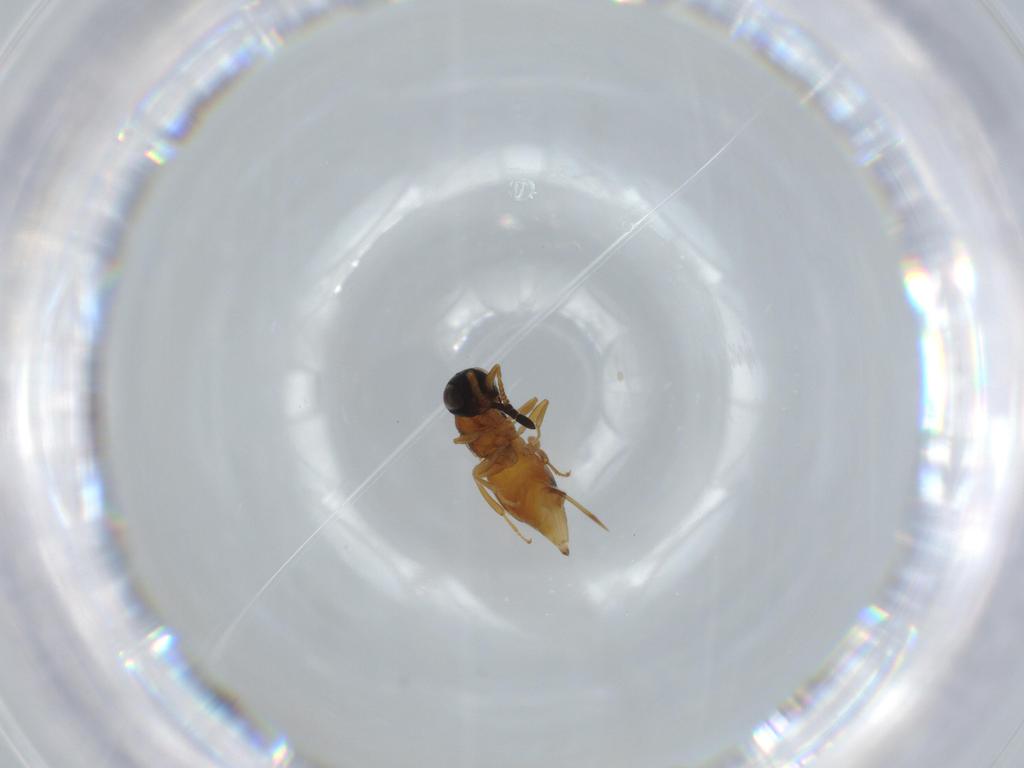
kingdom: Animalia
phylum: Arthropoda
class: Insecta
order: Hymenoptera
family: Ceraphronidae
